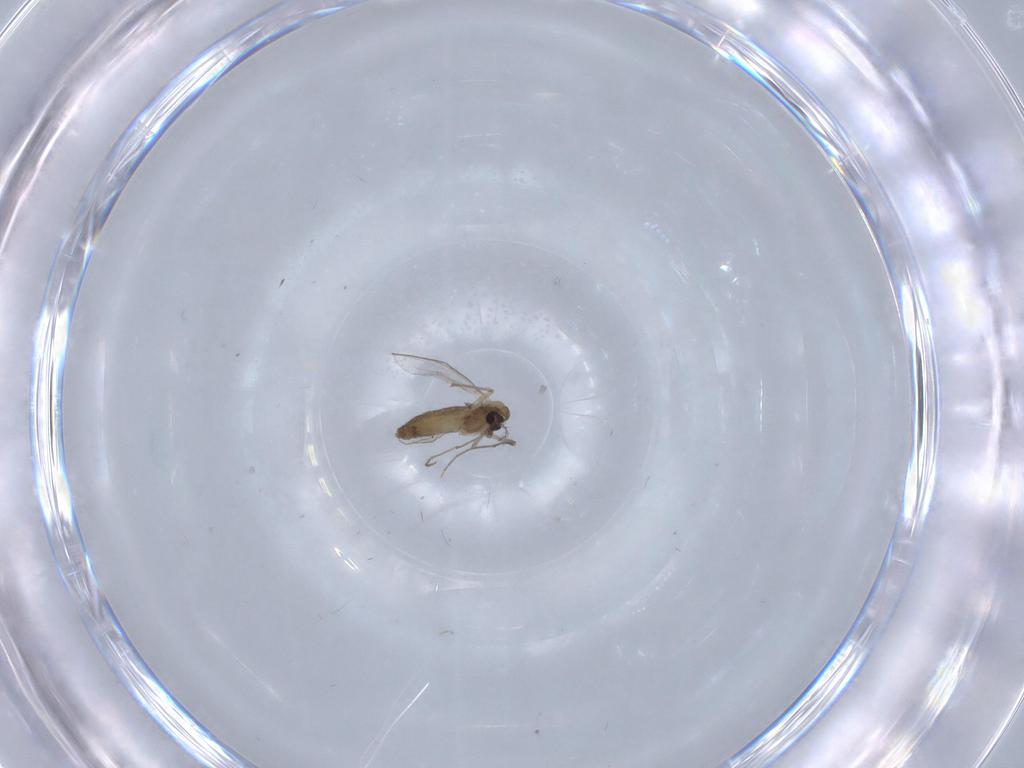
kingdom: Animalia
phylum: Arthropoda
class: Insecta
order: Diptera
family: Chironomidae
